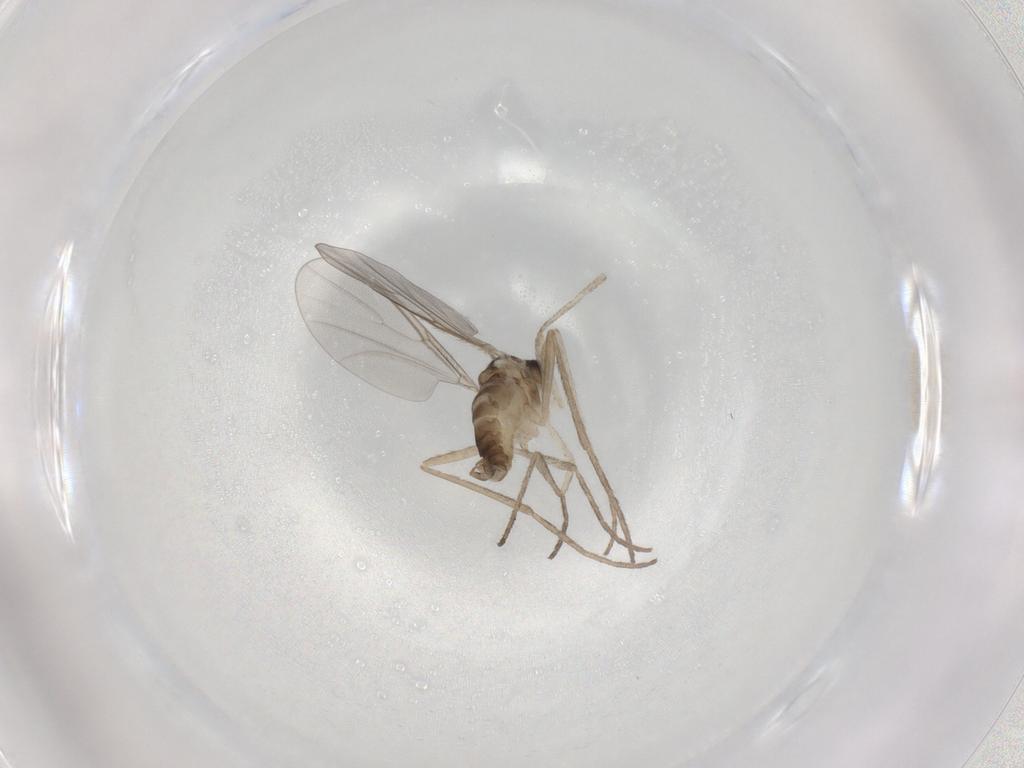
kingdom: Animalia
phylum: Arthropoda
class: Insecta
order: Diptera
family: Cecidomyiidae
